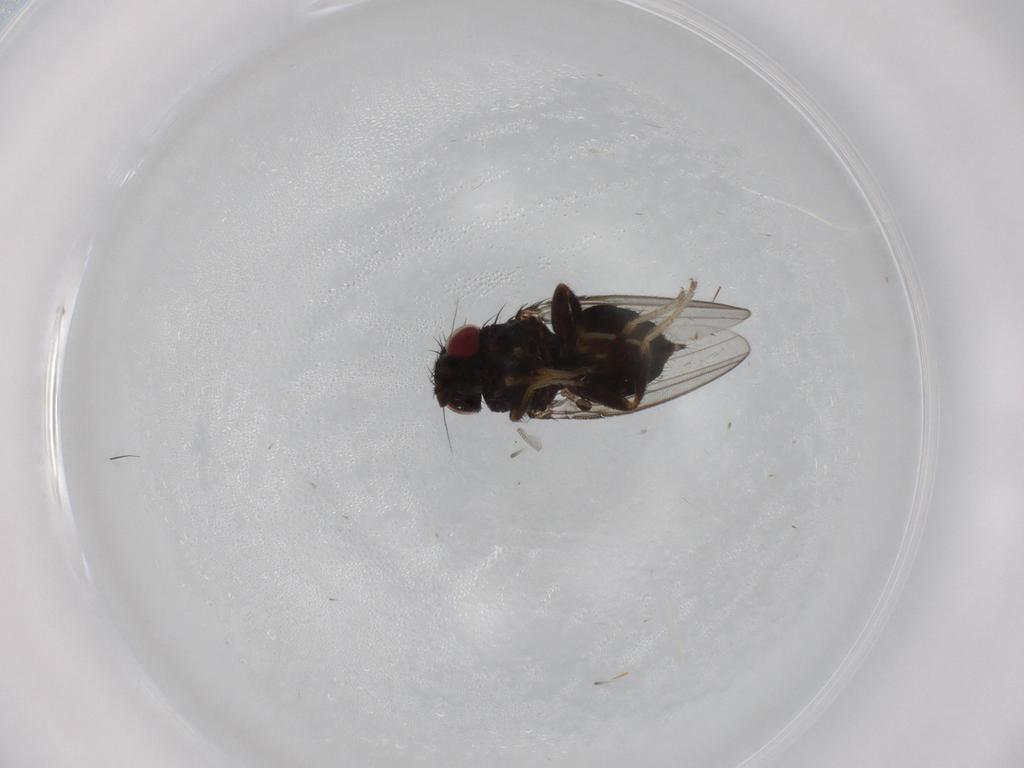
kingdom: Animalia
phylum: Arthropoda
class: Insecta
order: Diptera
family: Milichiidae
